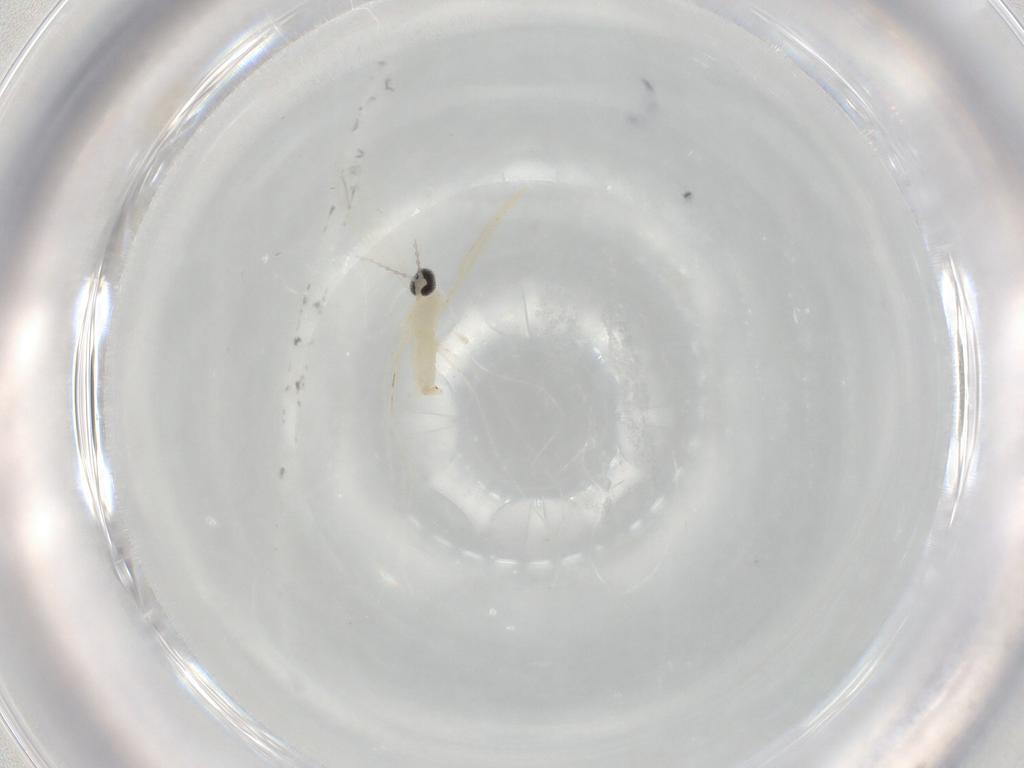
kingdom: Animalia
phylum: Arthropoda
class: Insecta
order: Diptera
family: Cecidomyiidae
